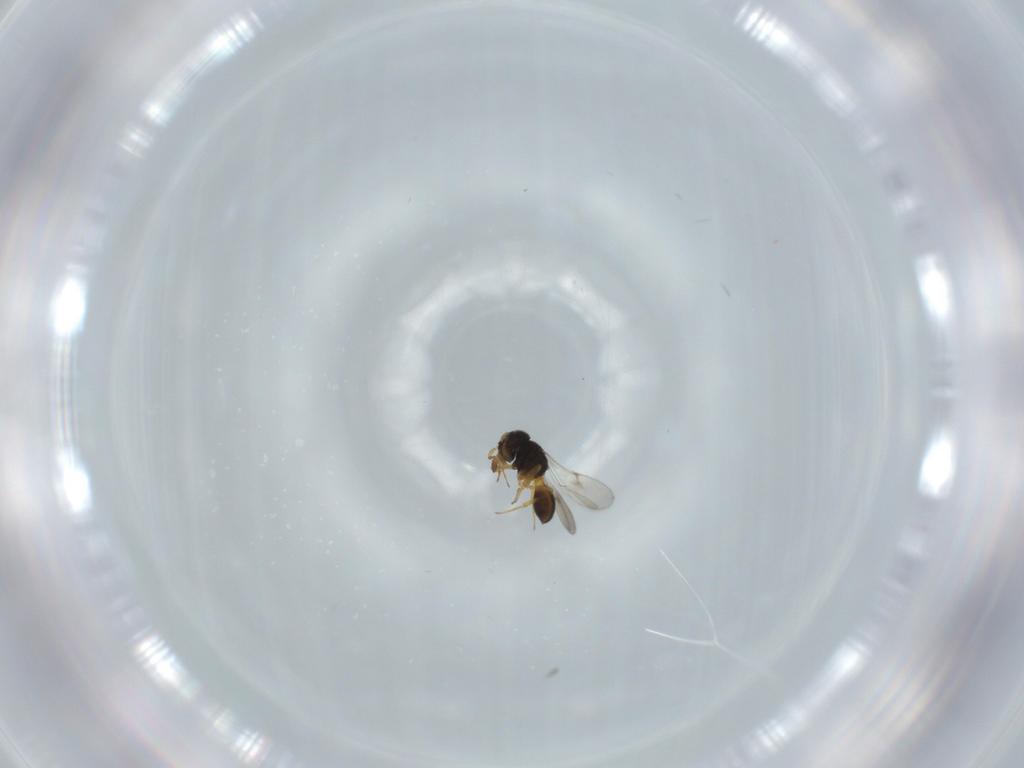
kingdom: Animalia
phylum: Arthropoda
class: Insecta
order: Hymenoptera
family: Scelionidae
